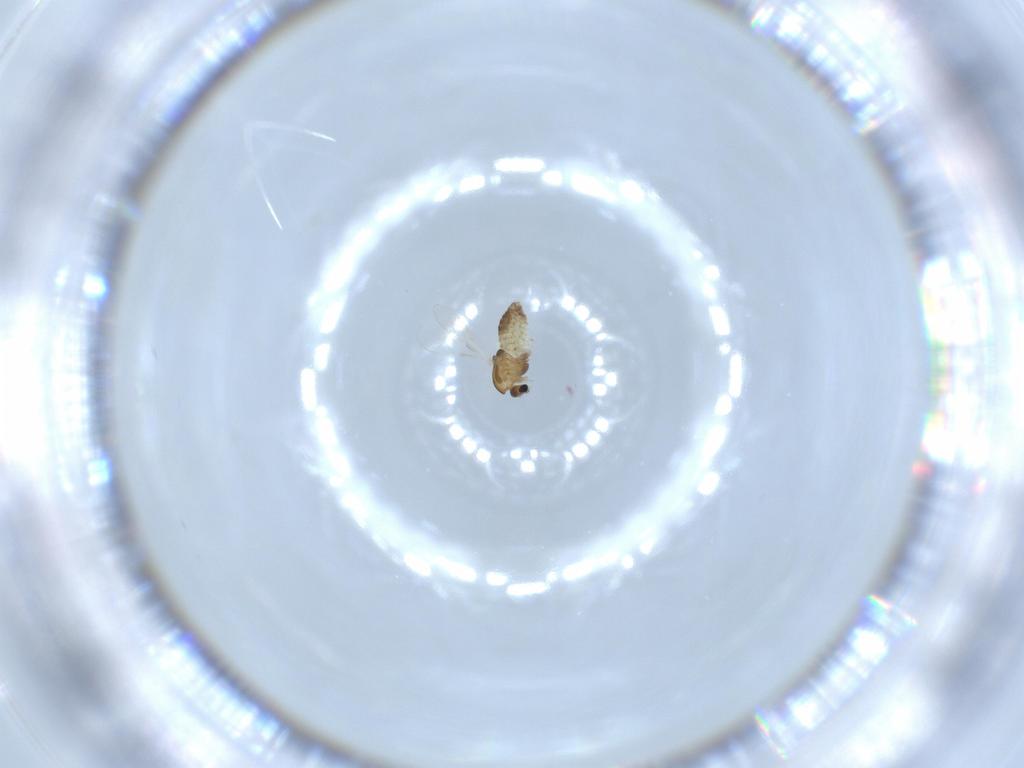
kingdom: Animalia
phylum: Arthropoda
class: Insecta
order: Diptera
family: Chironomidae
